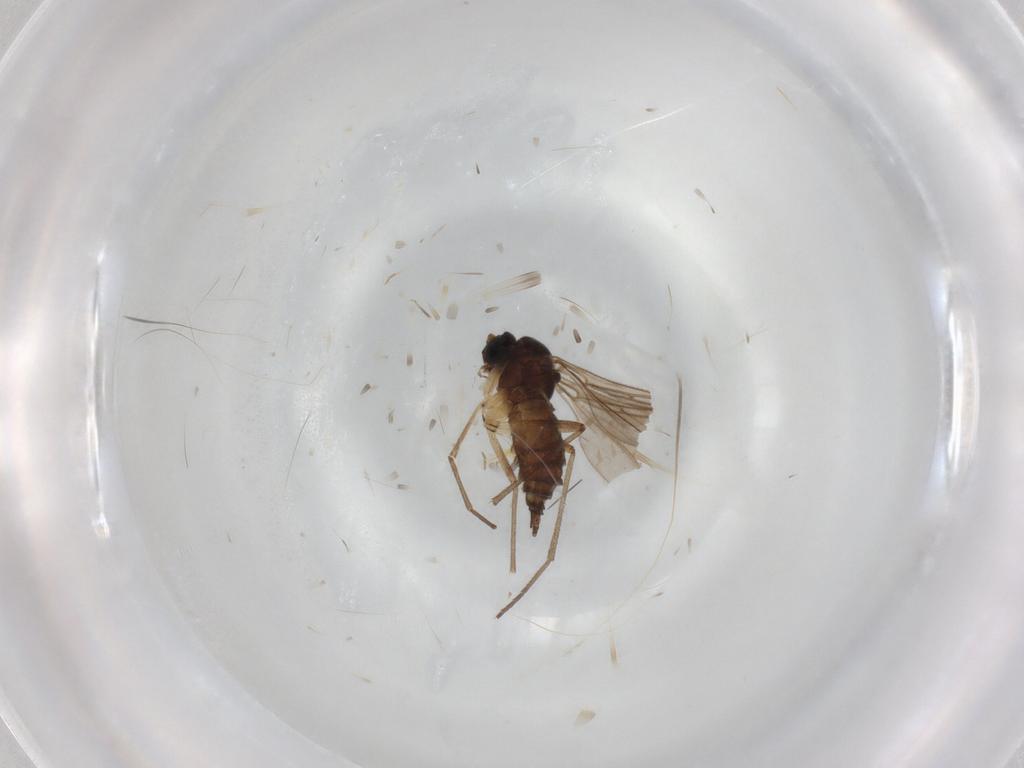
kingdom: Animalia
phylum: Arthropoda
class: Insecta
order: Diptera
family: Sciaridae
